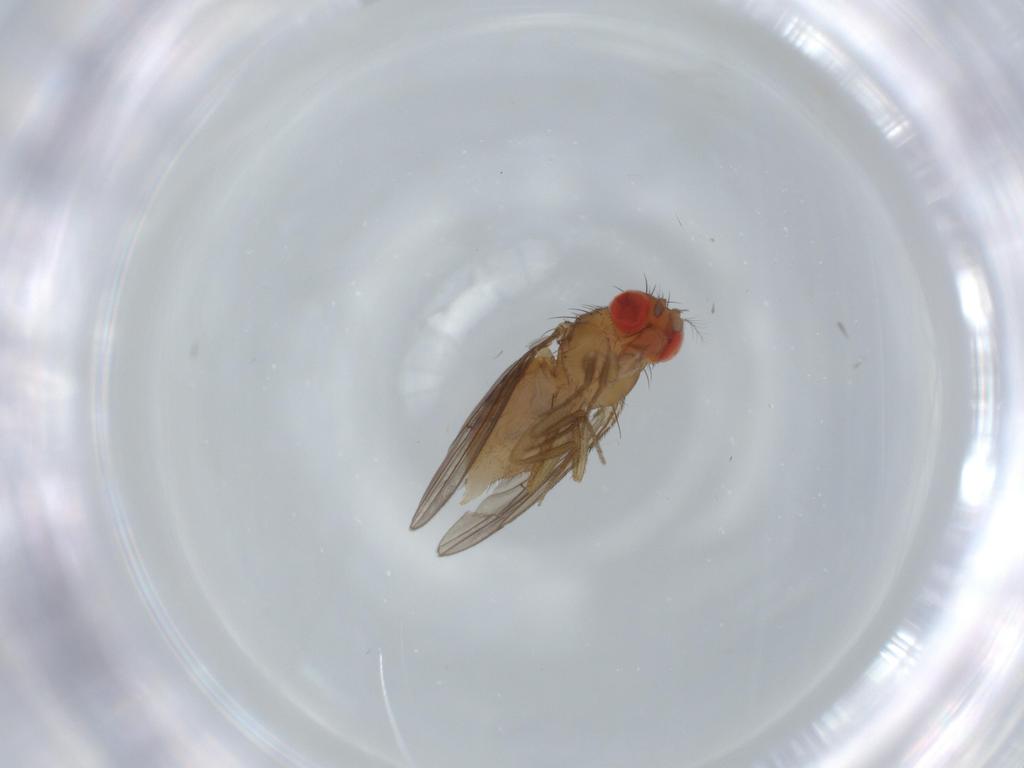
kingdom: Animalia
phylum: Arthropoda
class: Insecta
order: Diptera
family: Drosophilidae
